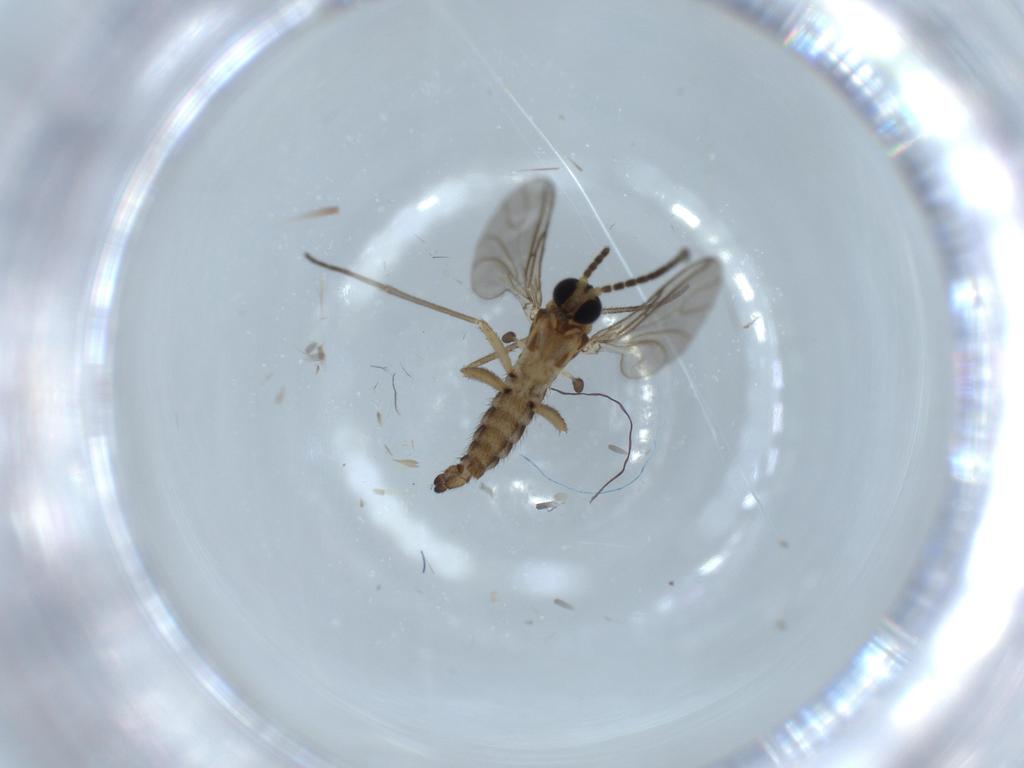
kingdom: Animalia
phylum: Arthropoda
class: Insecta
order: Diptera
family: Sciaridae
